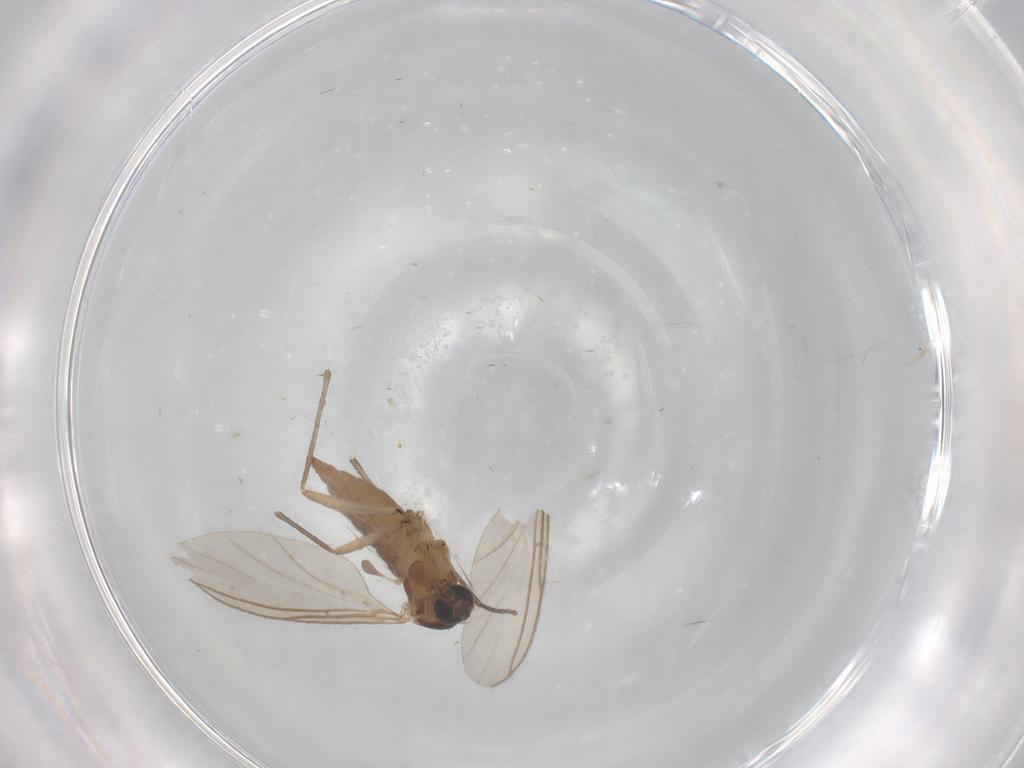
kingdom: Animalia
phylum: Arthropoda
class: Insecta
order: Diptera
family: Sciaridae
